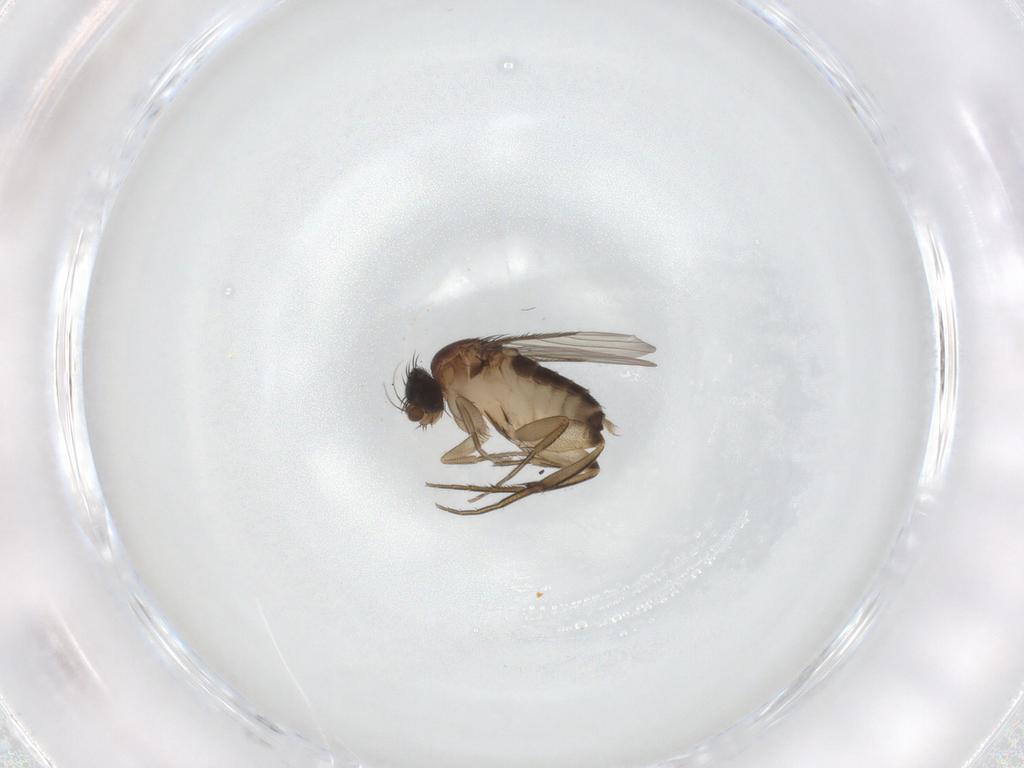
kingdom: Animalia
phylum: Arthropoda
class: Insecta
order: Diptera
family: Phoridae
